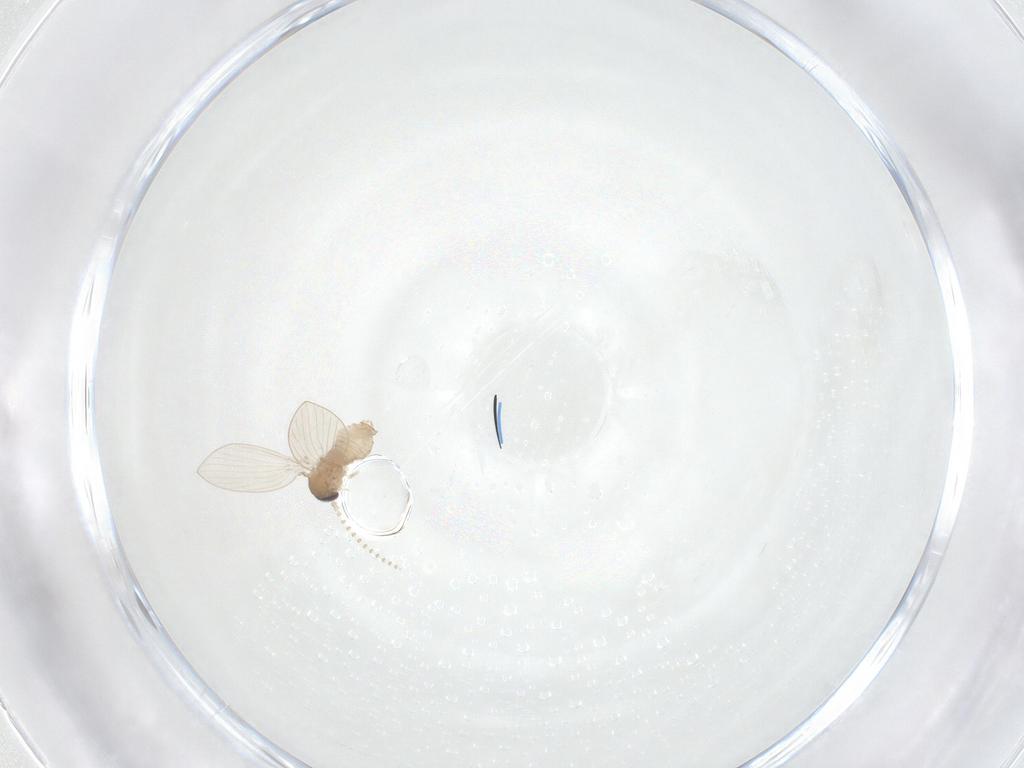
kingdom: Animalia
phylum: Arthropoda
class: Insecta
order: Diptera
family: Psychodidae
